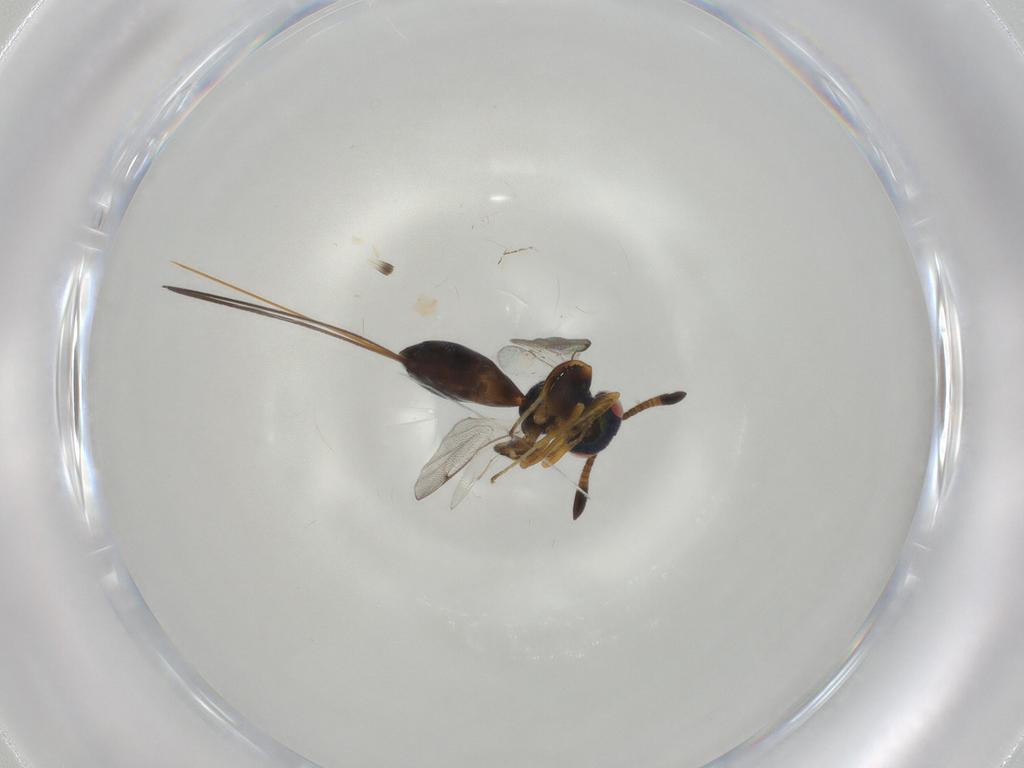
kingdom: Animalia
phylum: Arthropoda
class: Insecta
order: Hymenoptera
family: Torymidae
